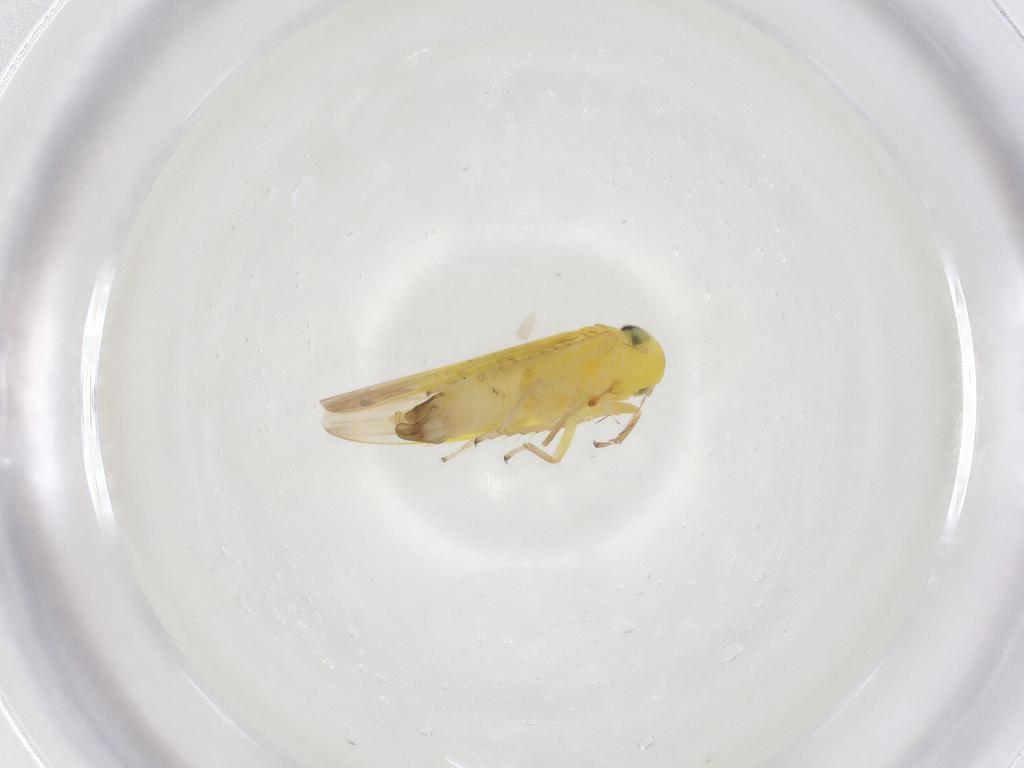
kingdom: Animalia
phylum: Arthropoda
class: Insecta
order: Hemiptera
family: Cicadellidae
